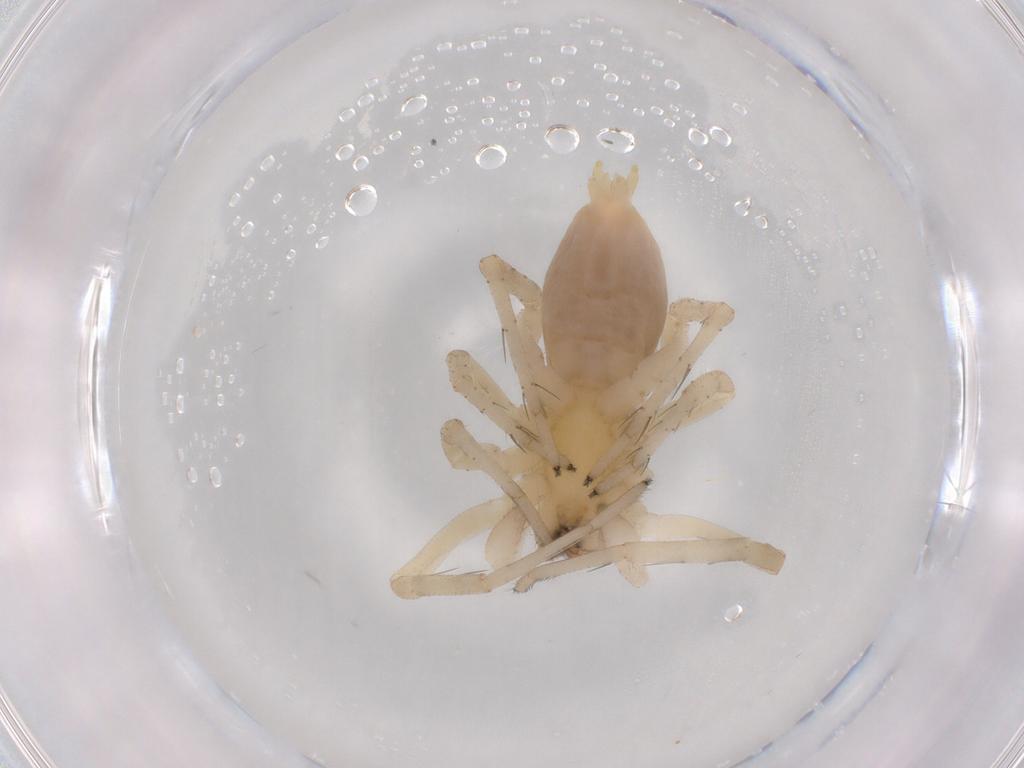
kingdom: Animalia
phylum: Arthropoda
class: Arachnida
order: Araneae
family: Anyphaenidae
